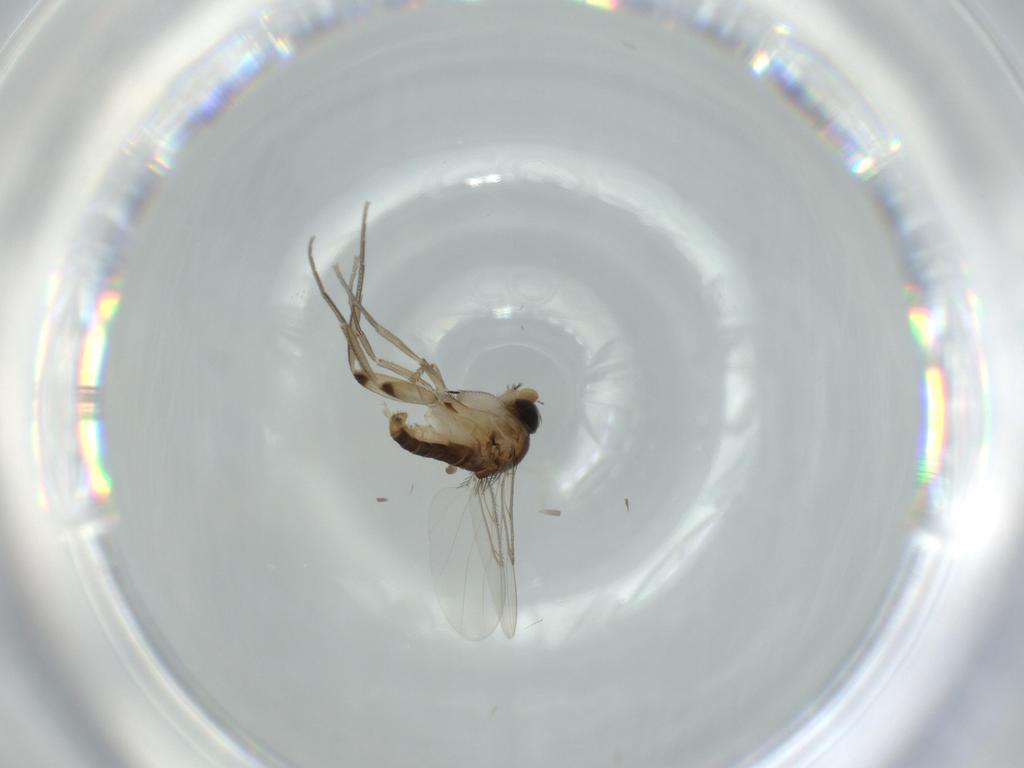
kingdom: Animalia
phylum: Arthropoda
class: Insecta
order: Diptera
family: Phoridae
